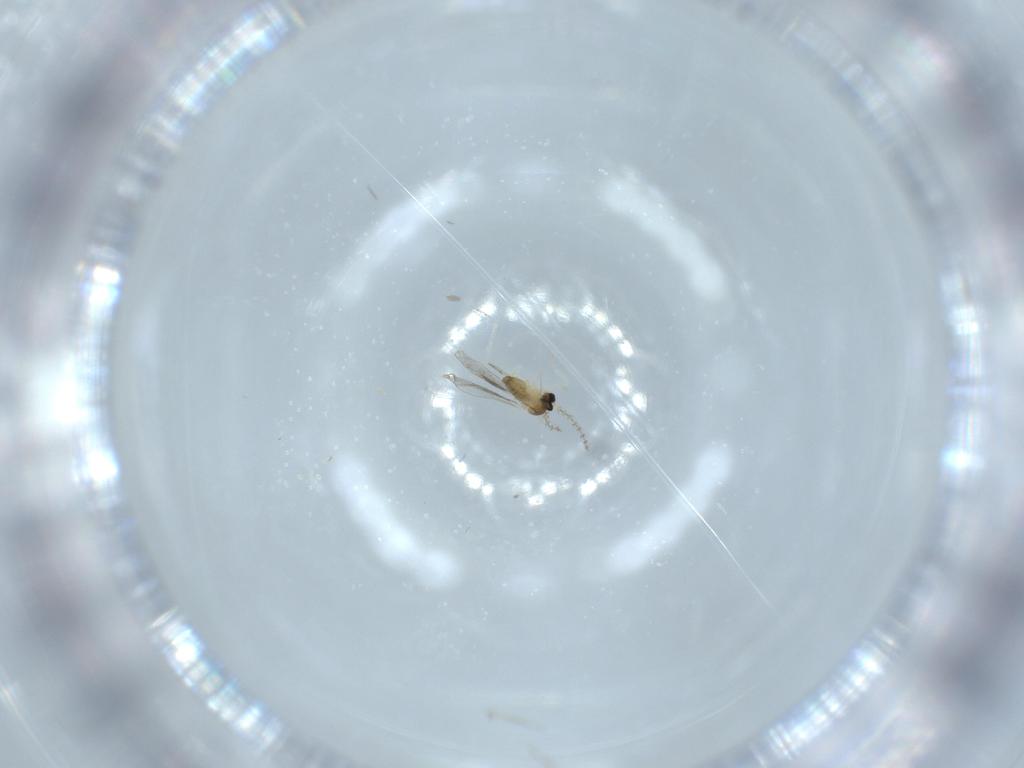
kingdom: Animalia
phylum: Arthropoda
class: Insecta
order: Diptera
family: Cecidomyiidae
